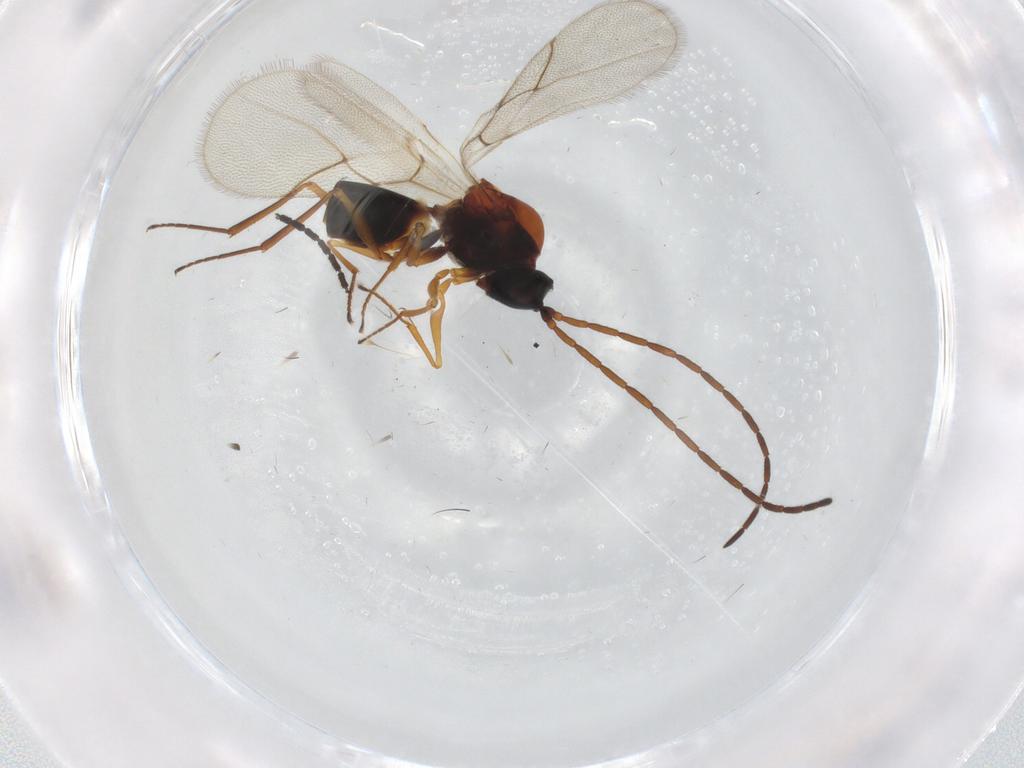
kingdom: Animalia
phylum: Arthropoda
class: Insecta
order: Hymenoptera
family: Figitidae
